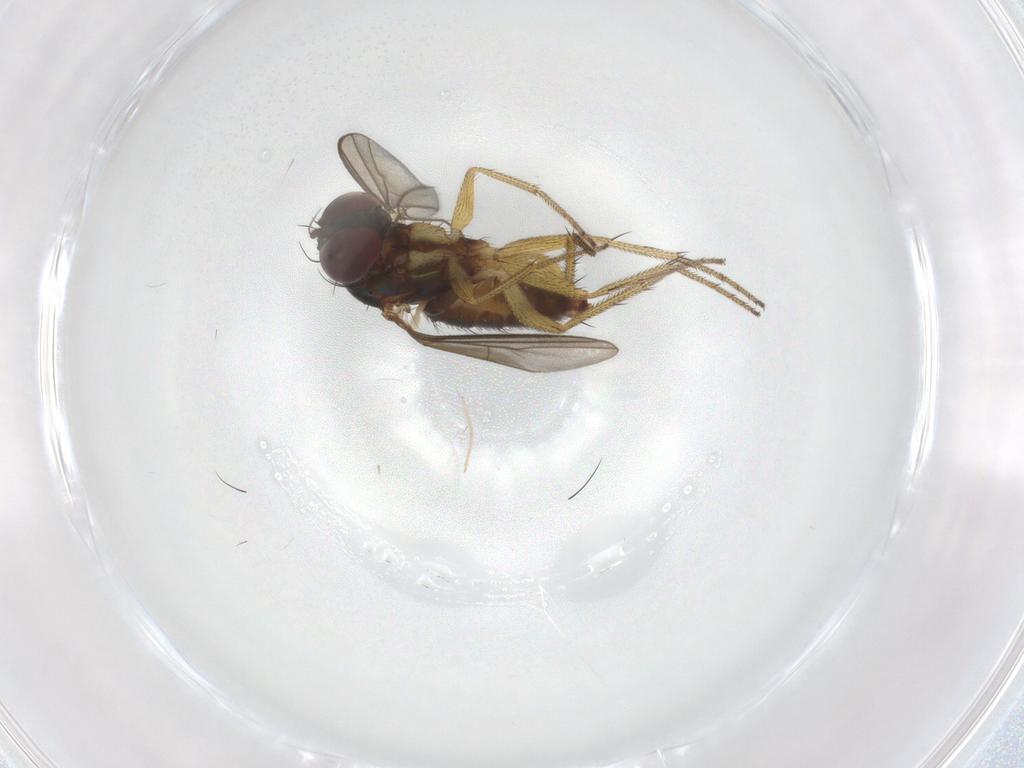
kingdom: Animalia
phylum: Arthropoda
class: Insecta
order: Diptera
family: Dolichopodidae
